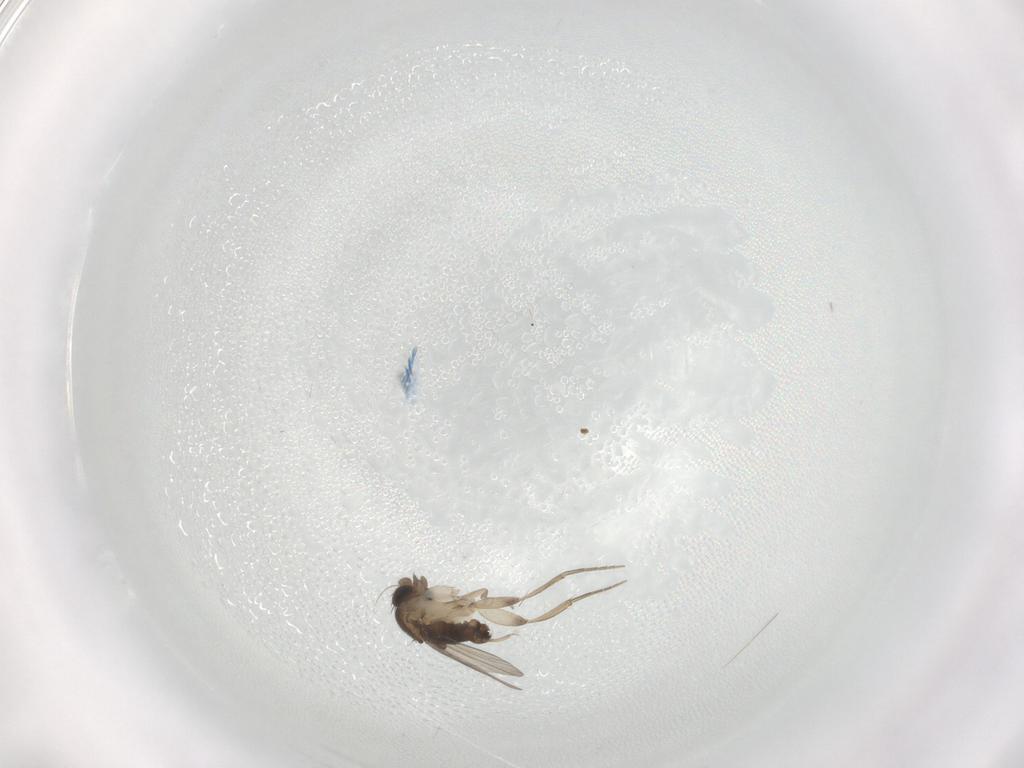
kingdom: Animalia
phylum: Arthropoda
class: Insecta
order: Diptera
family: Phoridae
